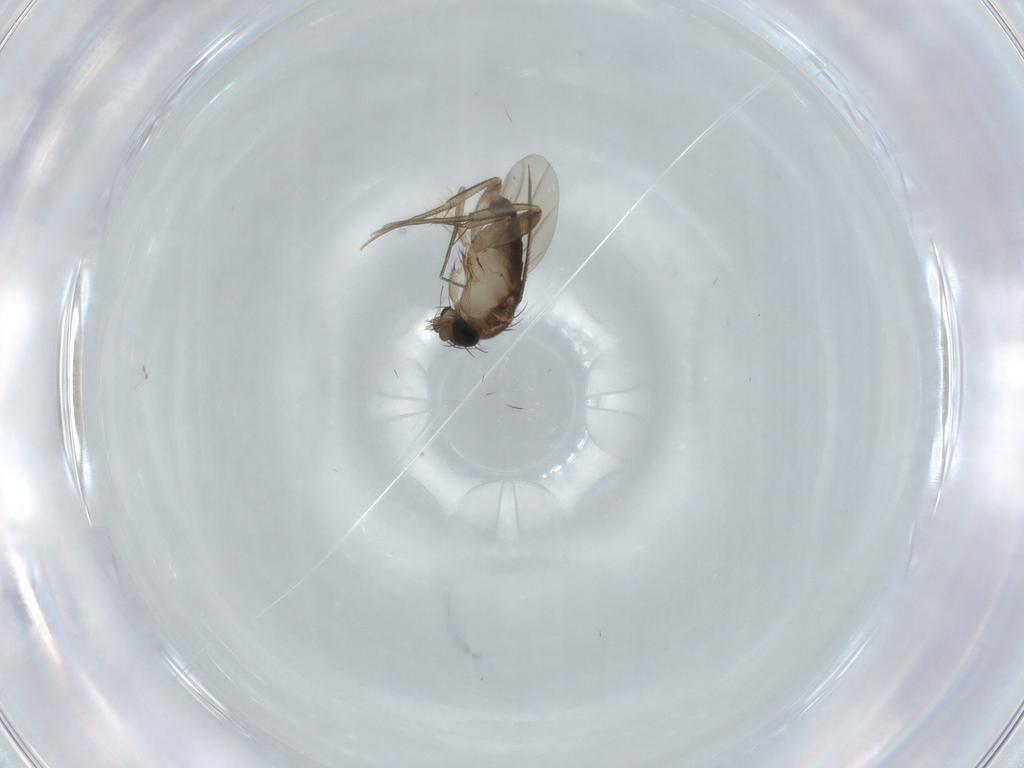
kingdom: Animalia
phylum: Arthropoda
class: Insecta
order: Diptera
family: Phoridae
